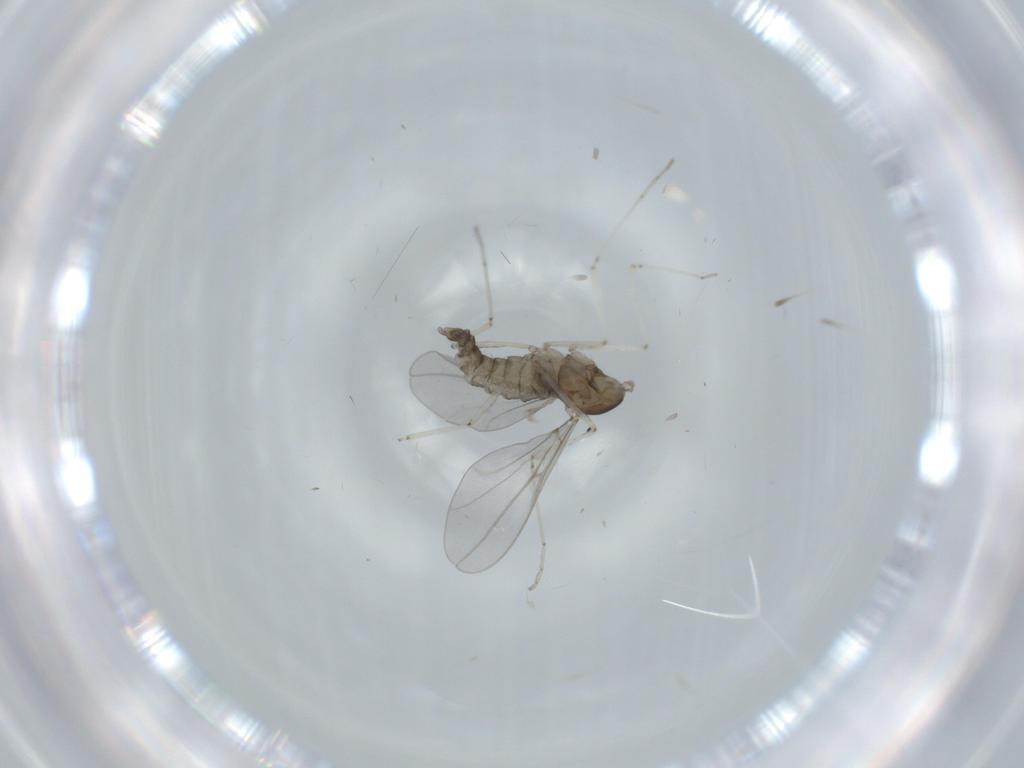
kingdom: Animalia
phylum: Arthropoda
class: Insecta
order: Diptera
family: Cecidomyiidae
